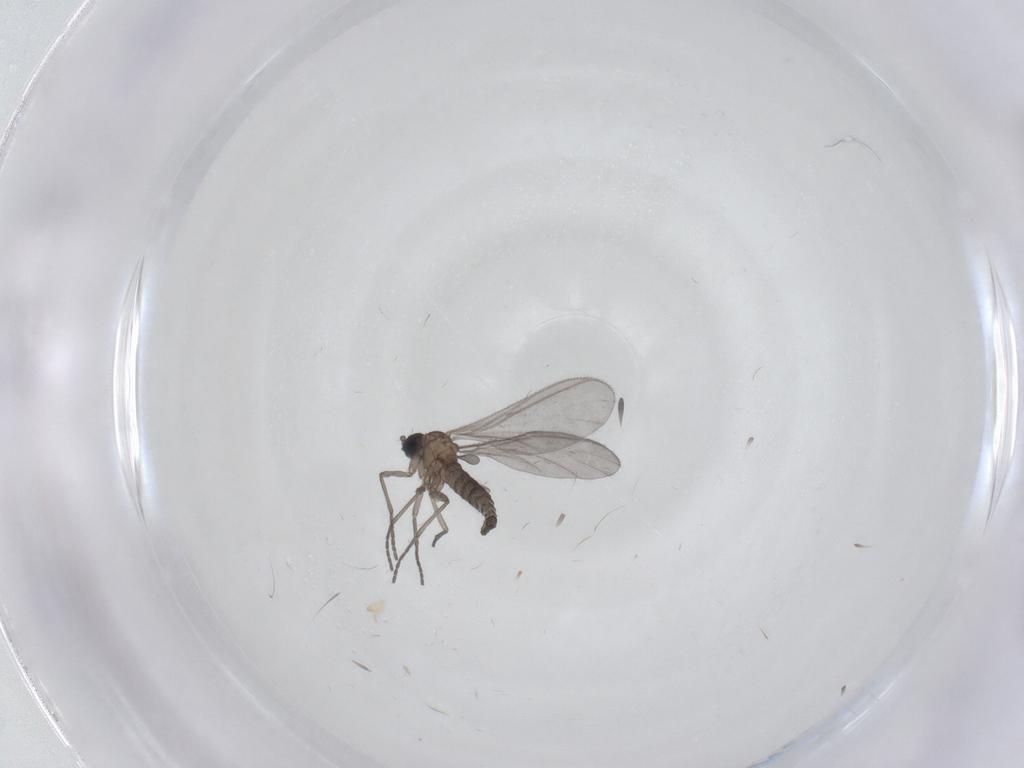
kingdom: Animalia
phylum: Arthropoda
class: Insecta
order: Diptera
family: Sciaridae
